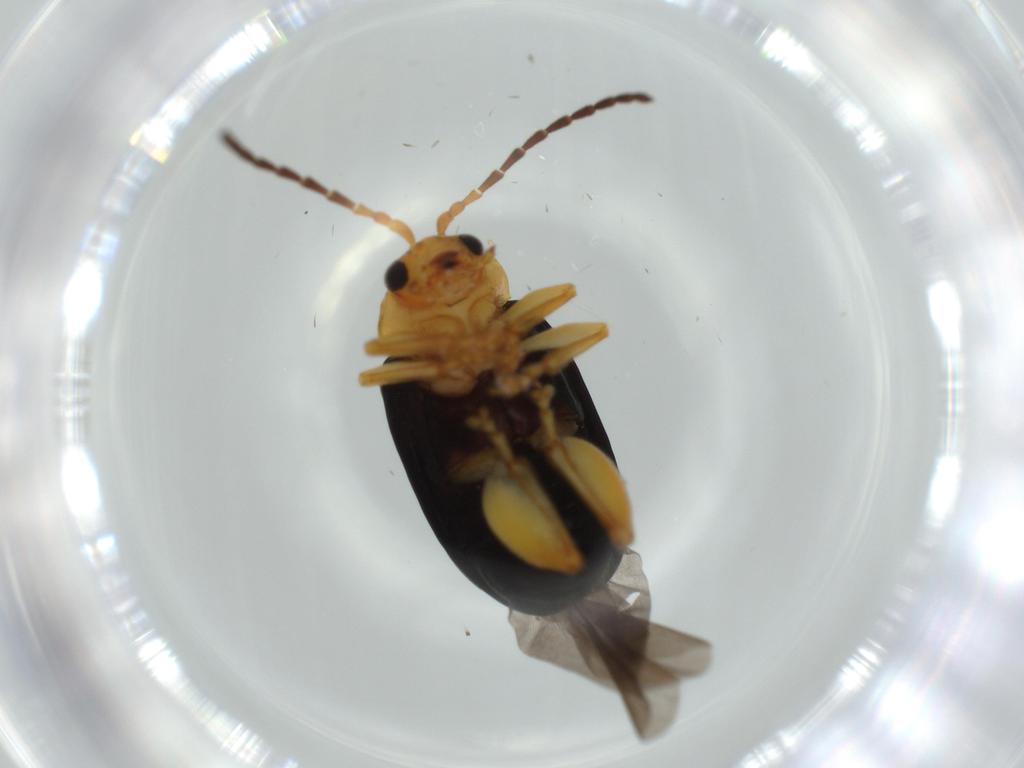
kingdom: Animalia
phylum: Arthropoda
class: Insecta
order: Coleoptera
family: Chrysomelidae
